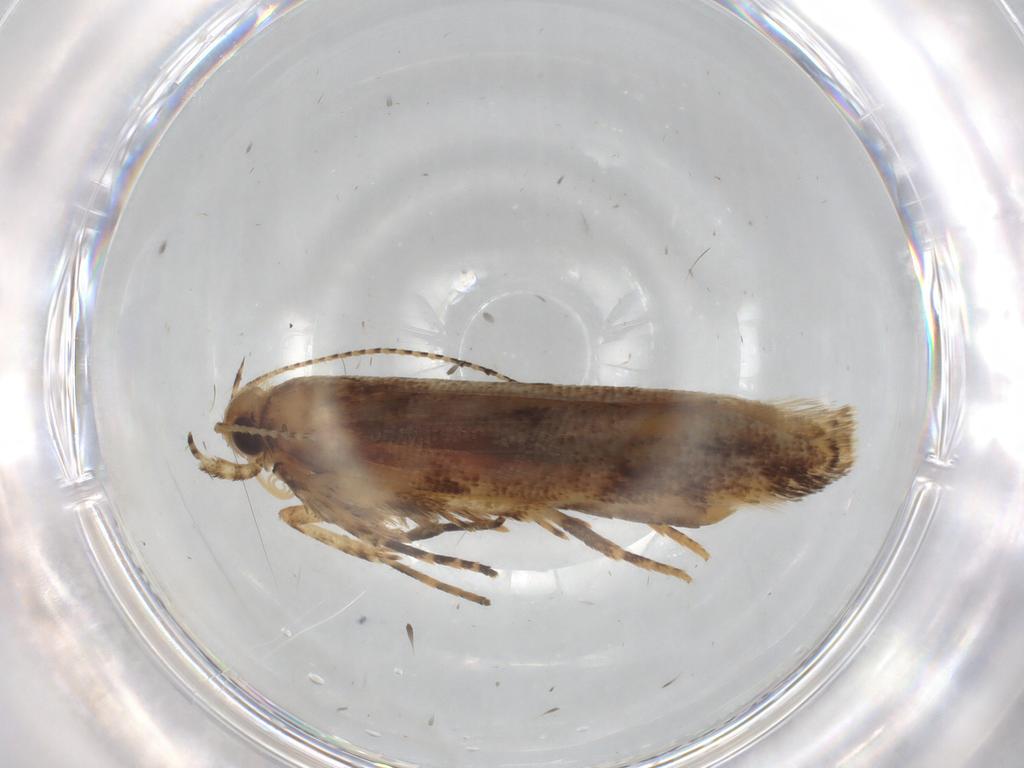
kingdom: Animalia
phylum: Arthropoda
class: Insecta
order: Lepidoptera
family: Gelechiidae
